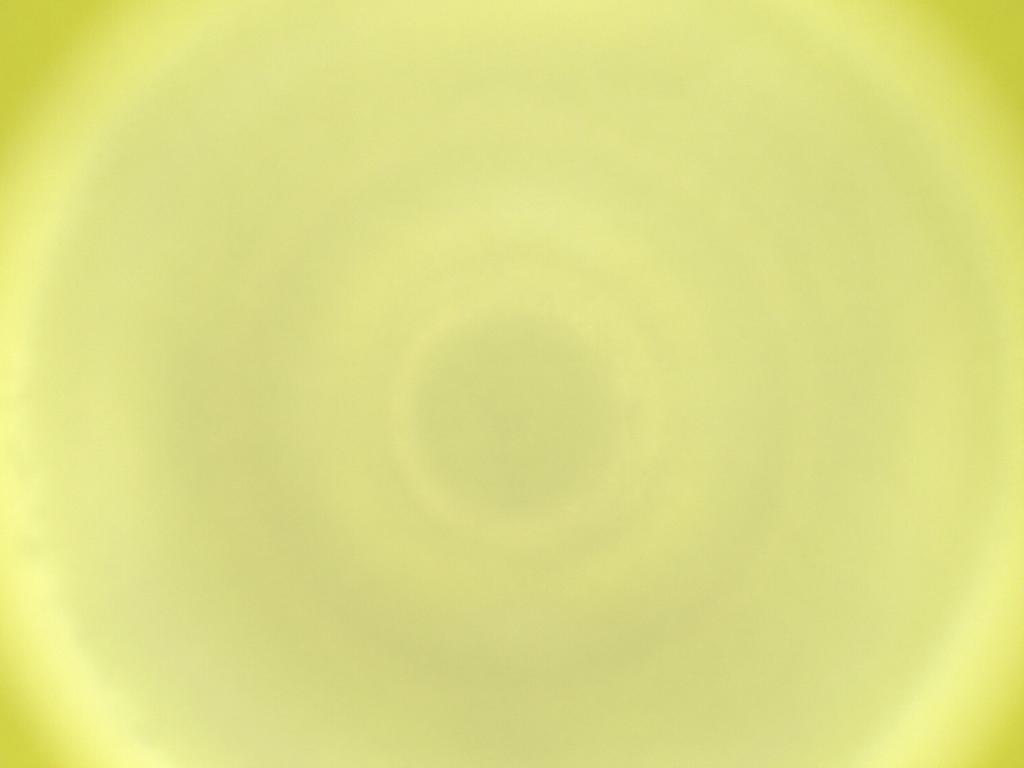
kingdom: Animalia
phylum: Arthropoda
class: Insecta
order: Diptera
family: Cecidomyiidae
